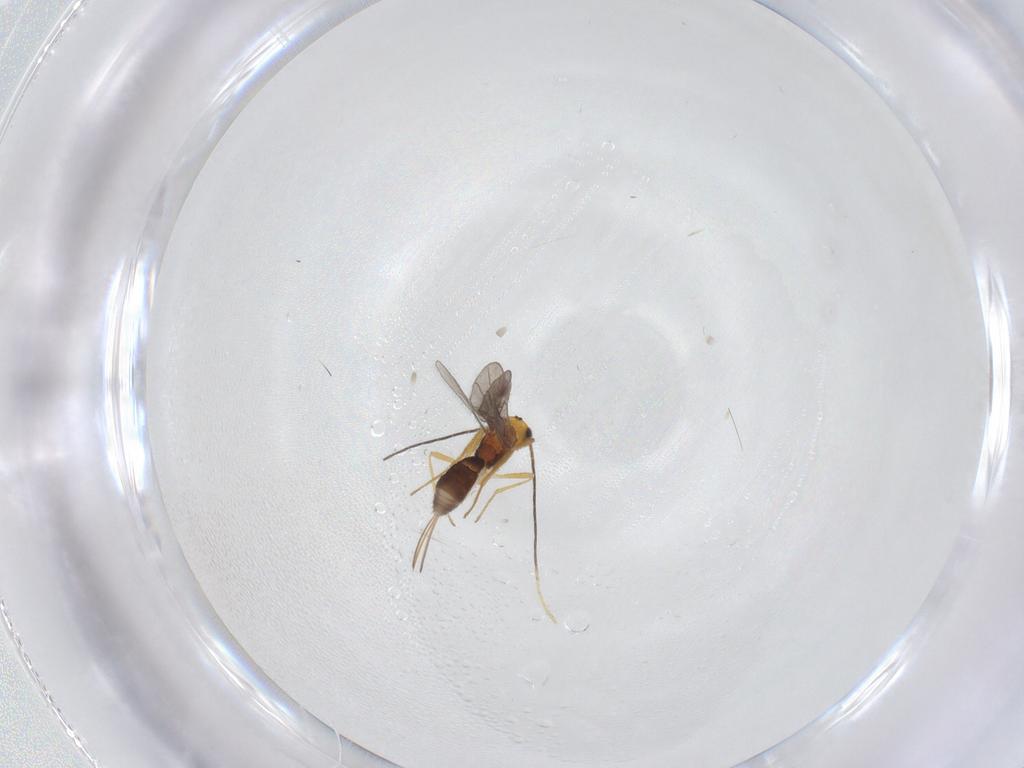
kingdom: Animalia
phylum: Arthropoda
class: Insecta
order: Hymenoptera
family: Braconidae
